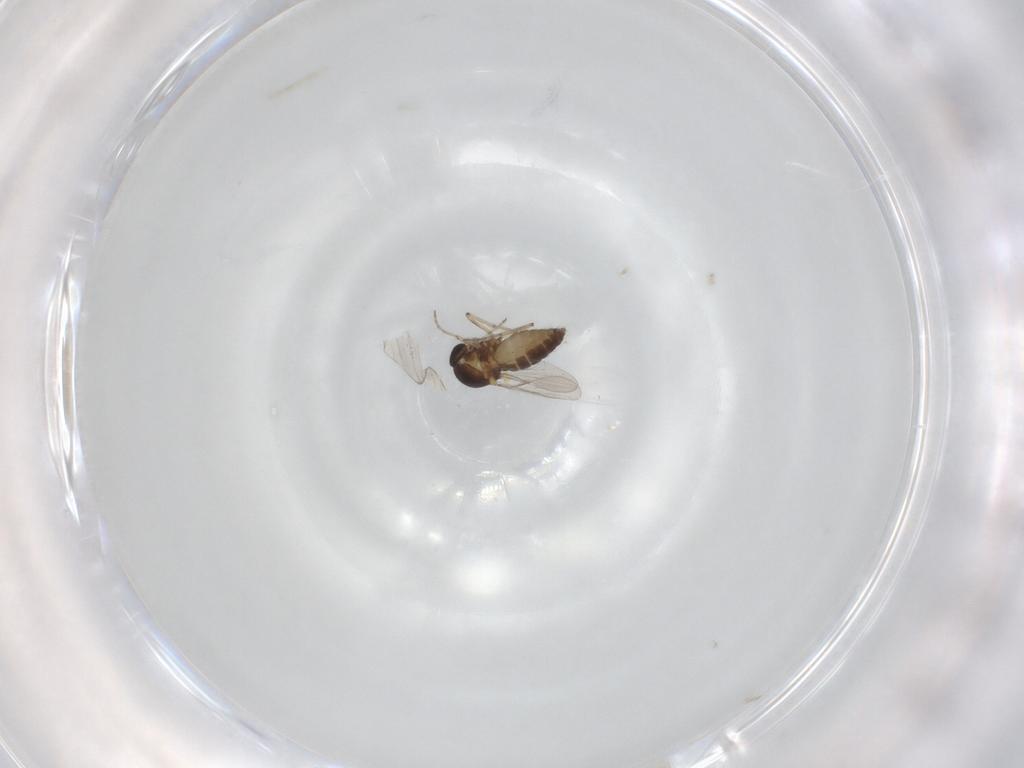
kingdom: Animalia
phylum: Arthropoda
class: Insecta
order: Diptera
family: Ceratopogonidae
